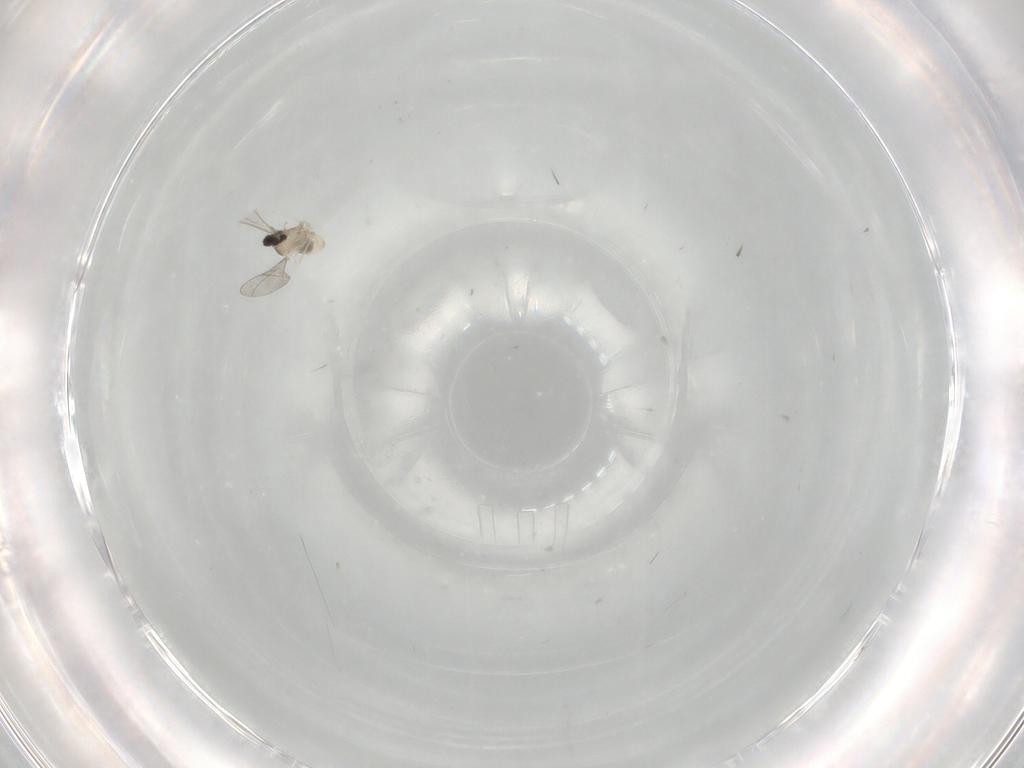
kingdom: Animalia
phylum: Arthropoda
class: Insecta
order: Diptera
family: Cecidomyiidae
